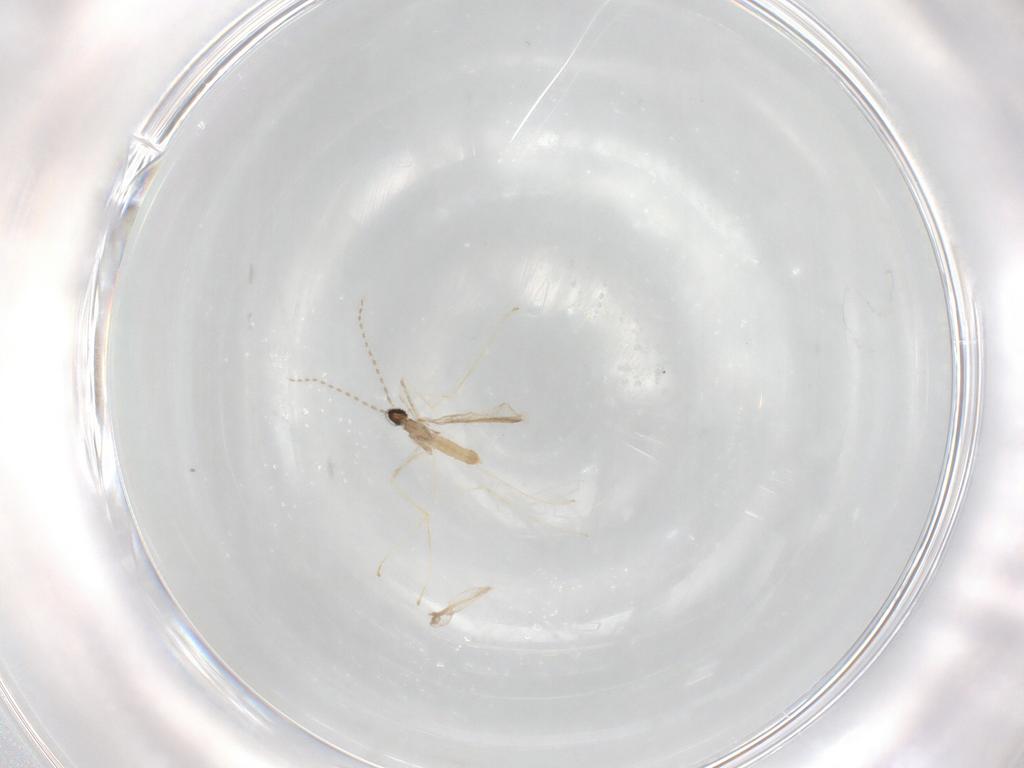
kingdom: Animalia
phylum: Arthropoda
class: Insecta
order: Diptera
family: Cecidomyiidae
